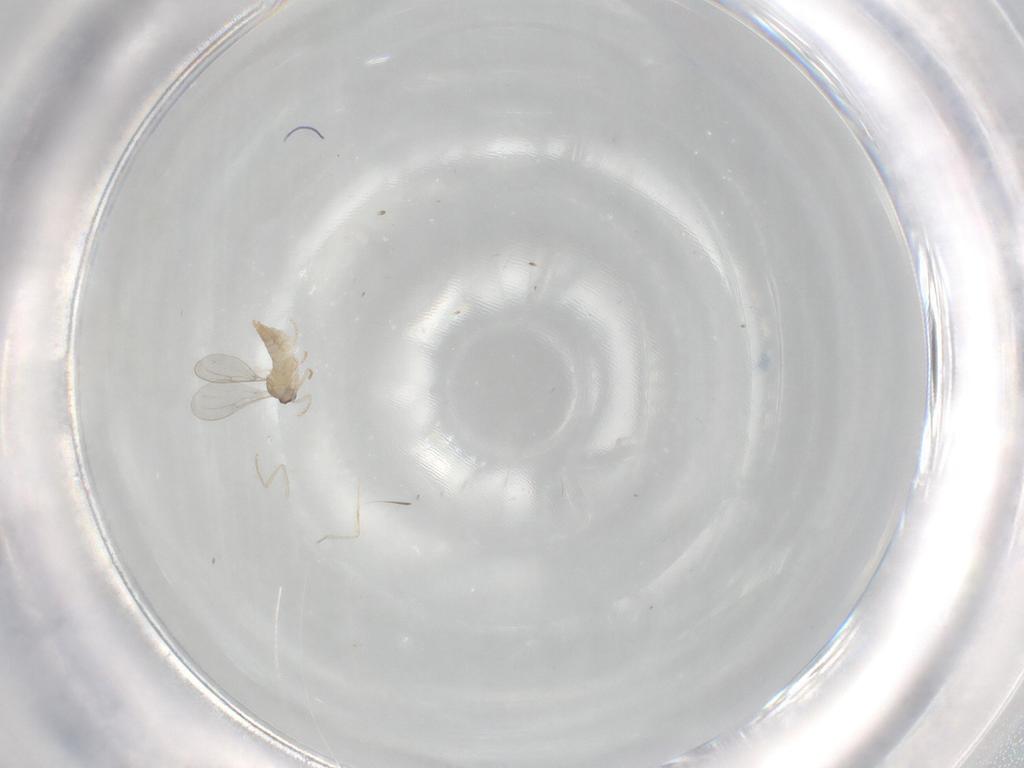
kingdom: Animalia
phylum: Arthropoda
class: Insecta
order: Diptera
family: Cecidomyiidae
